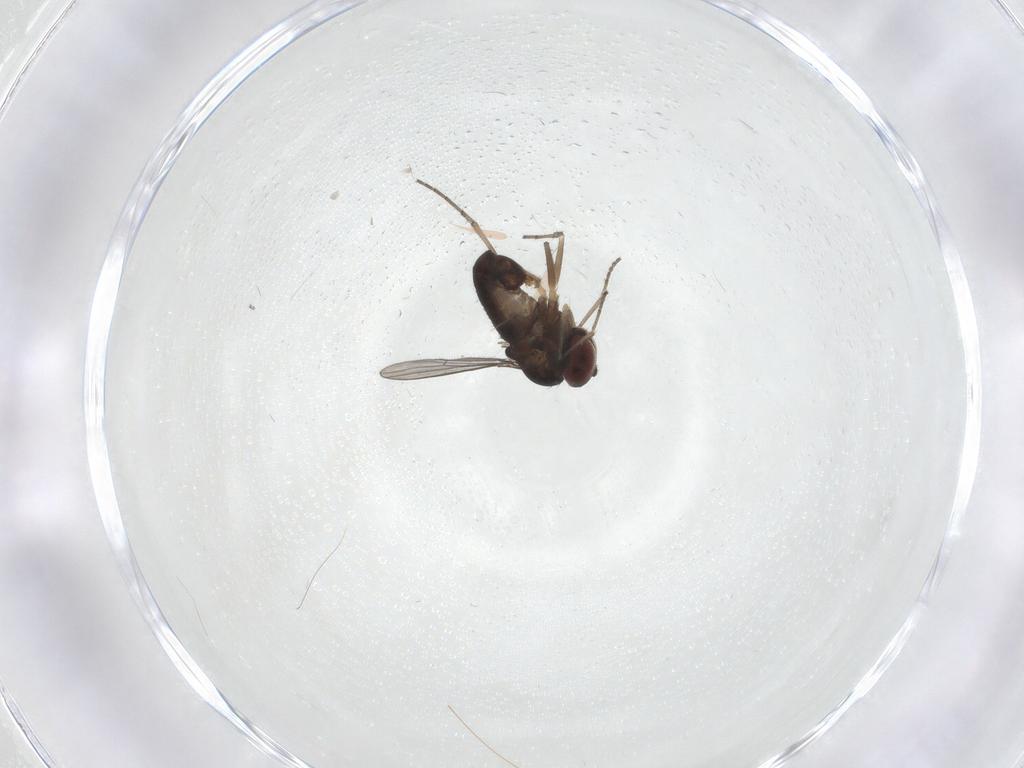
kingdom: Animalia
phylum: Arthropoda
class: Insecta
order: Diptera
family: Dolichopodidae
